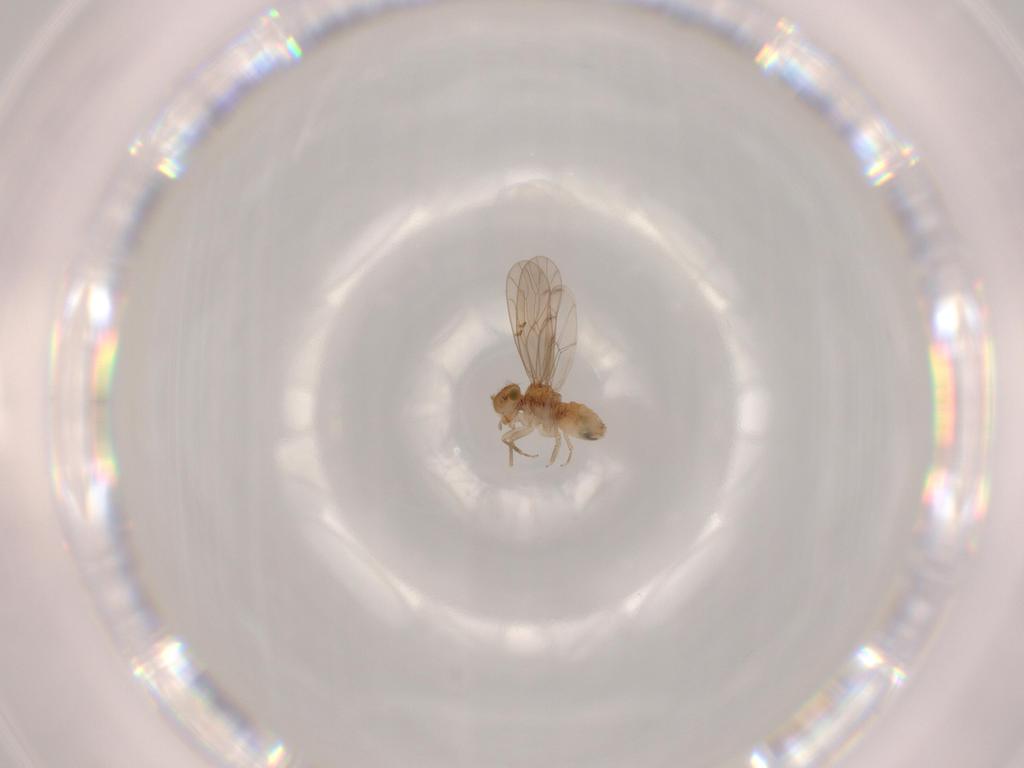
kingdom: Animalia
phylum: Arthropoda
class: Insecta
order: Psocodea
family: Ectopsocidae
